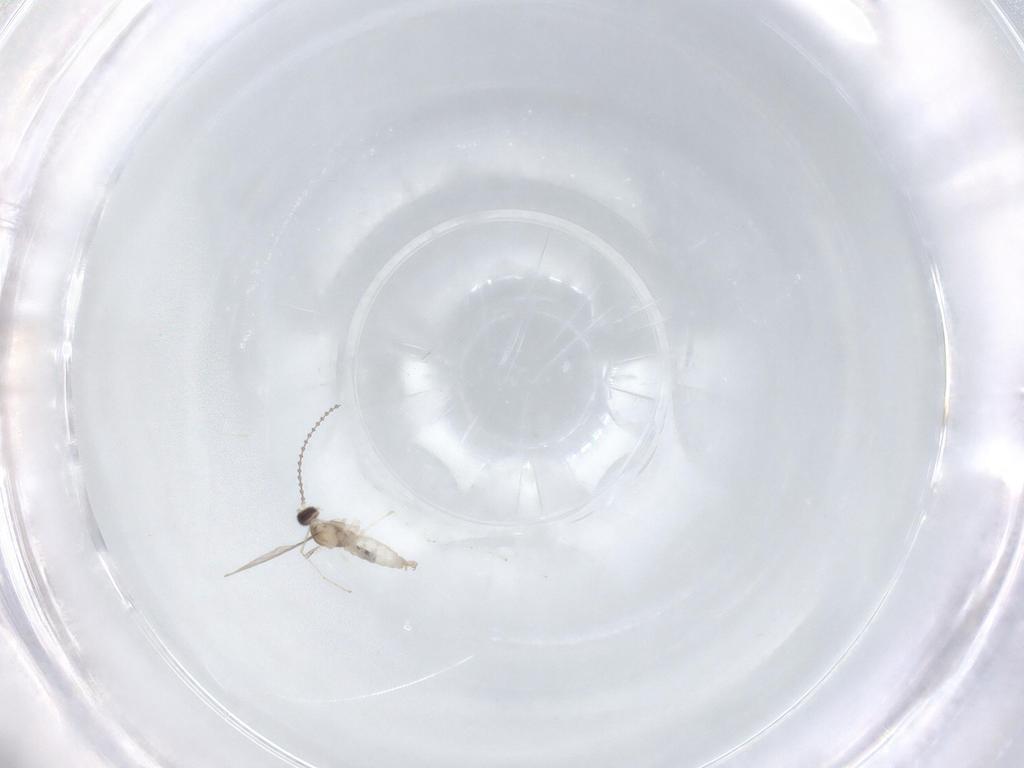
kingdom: Animalia
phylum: Arthropoda
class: Insecta
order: Diptera
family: Cecidomyiidae
